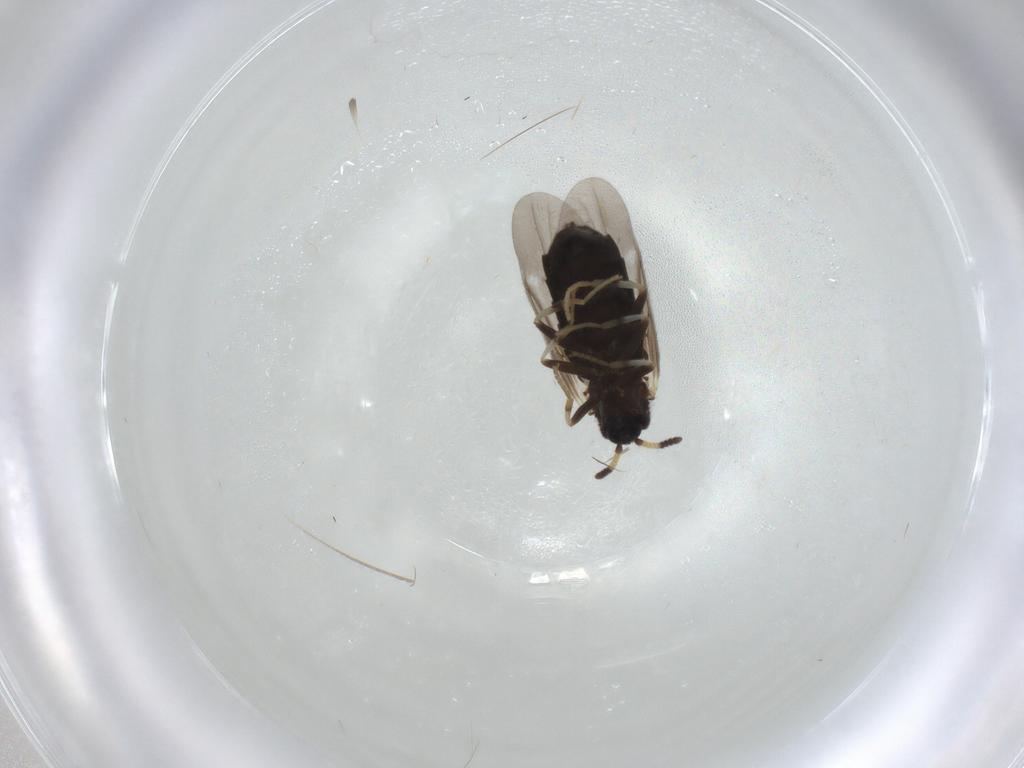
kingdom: Animalia
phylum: Arthropoda
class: Insecta
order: Diptera
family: Scatopsidae
